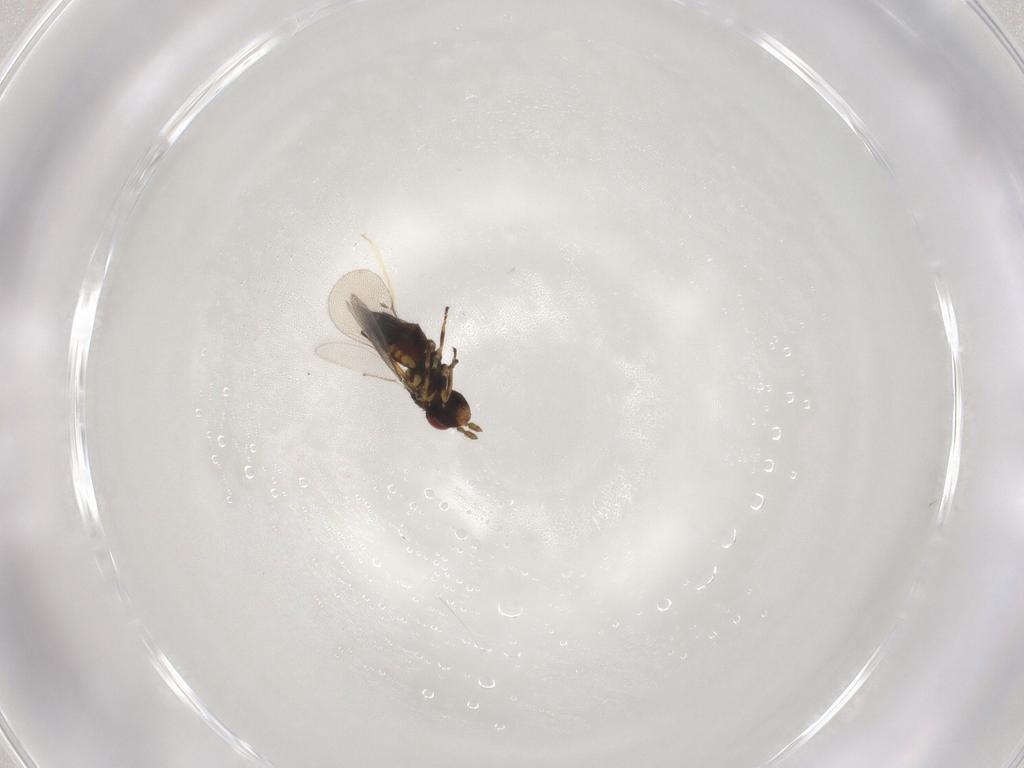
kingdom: Animalia
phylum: Arthropoda
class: Insecta
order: Hymenoptera
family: Eulophidae
